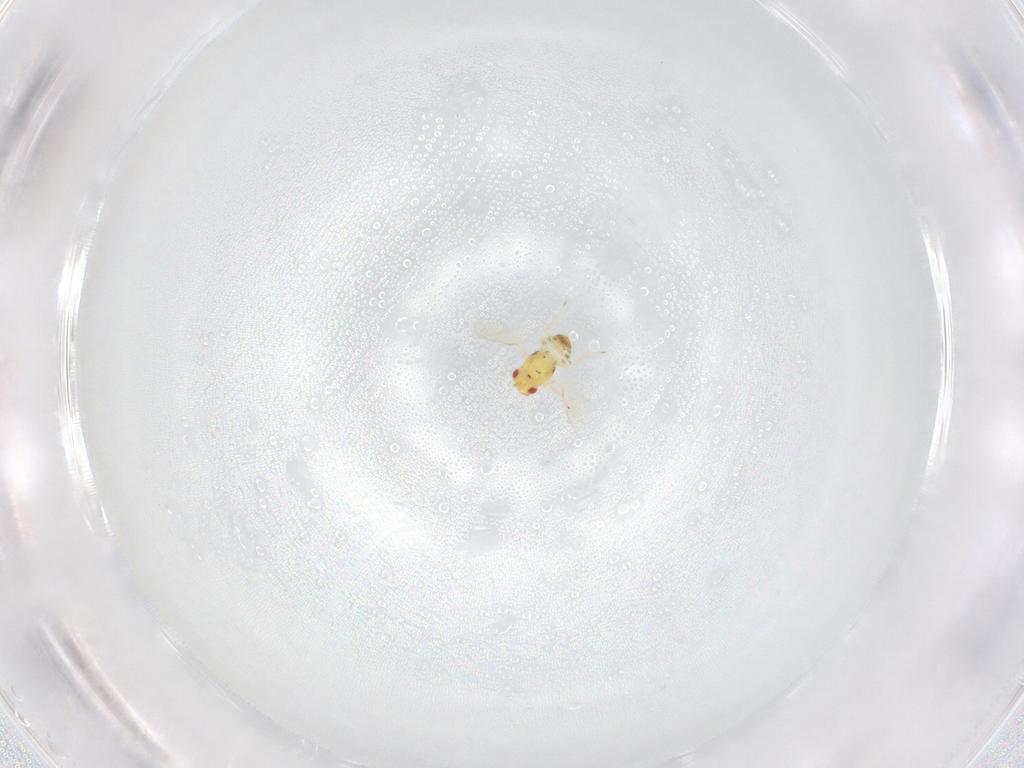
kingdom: Animalia
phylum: Arthropoda
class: Insecta
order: Hymenoptera
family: Eulophidae
